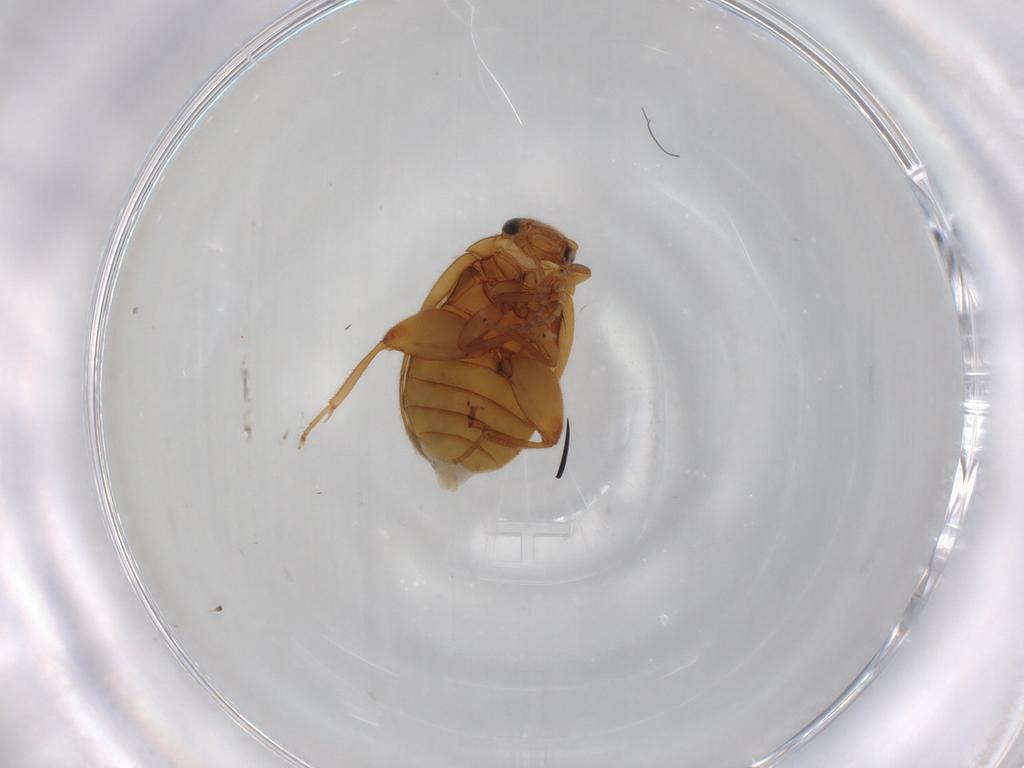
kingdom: Animalia
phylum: Arthropoda
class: Insecta
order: Coleoptera
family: Scirtidae
